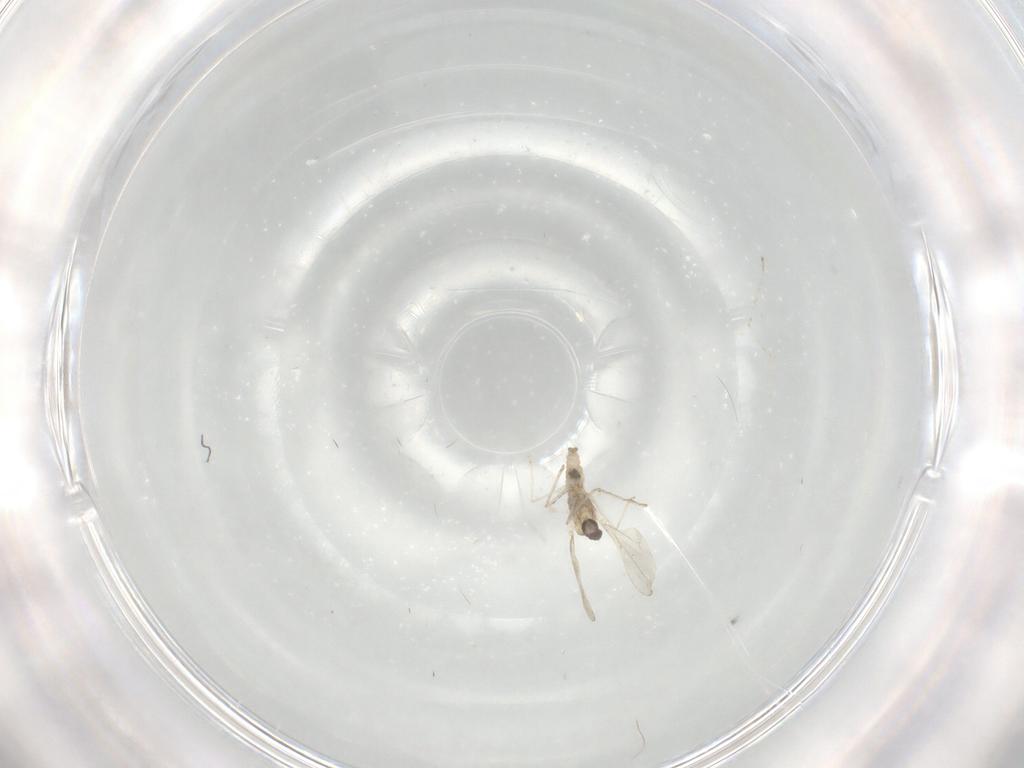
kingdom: Animalia
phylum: Arthropoda
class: Insecta
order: Diptera
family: Cecidomyiidae
